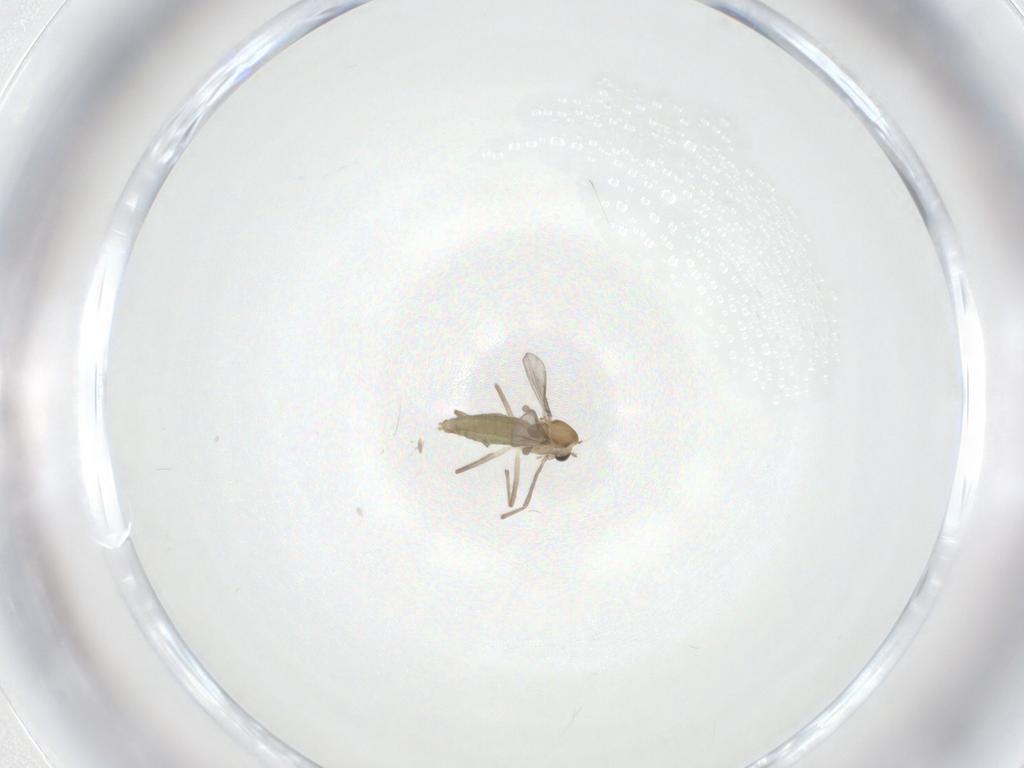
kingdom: Animalia
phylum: Arthropoda
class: Insecta
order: Diptera
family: Chironomidae
